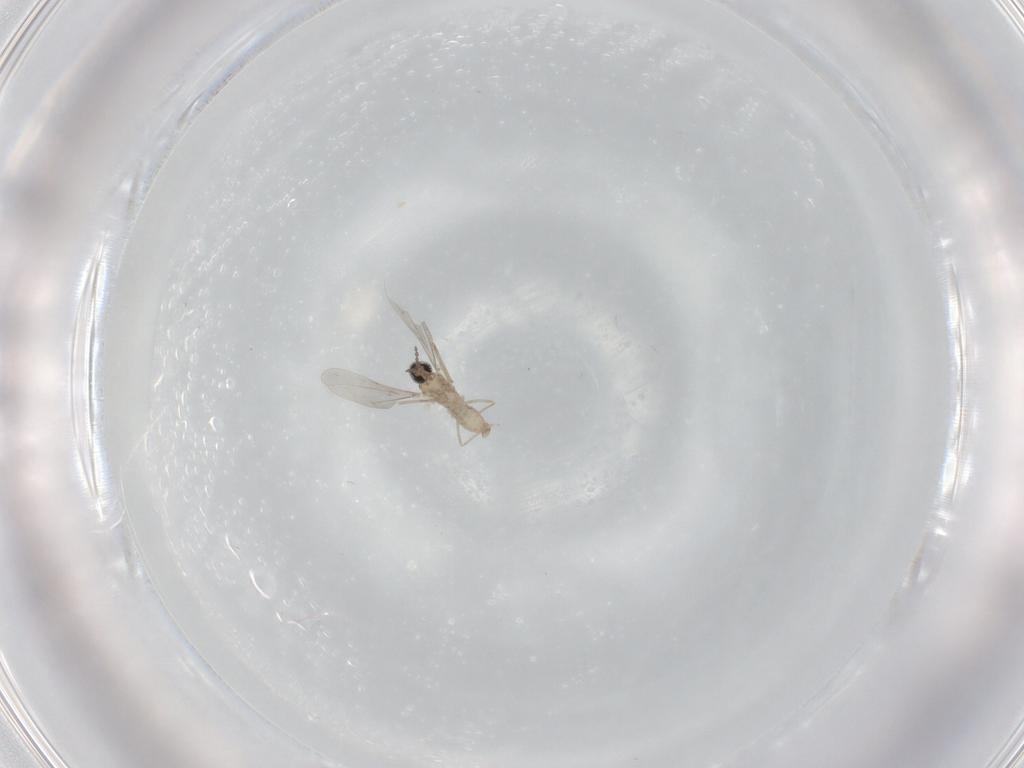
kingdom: Animalia
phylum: Arthropoda
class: Insecta
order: Diptera
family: Cecidomyiidae
